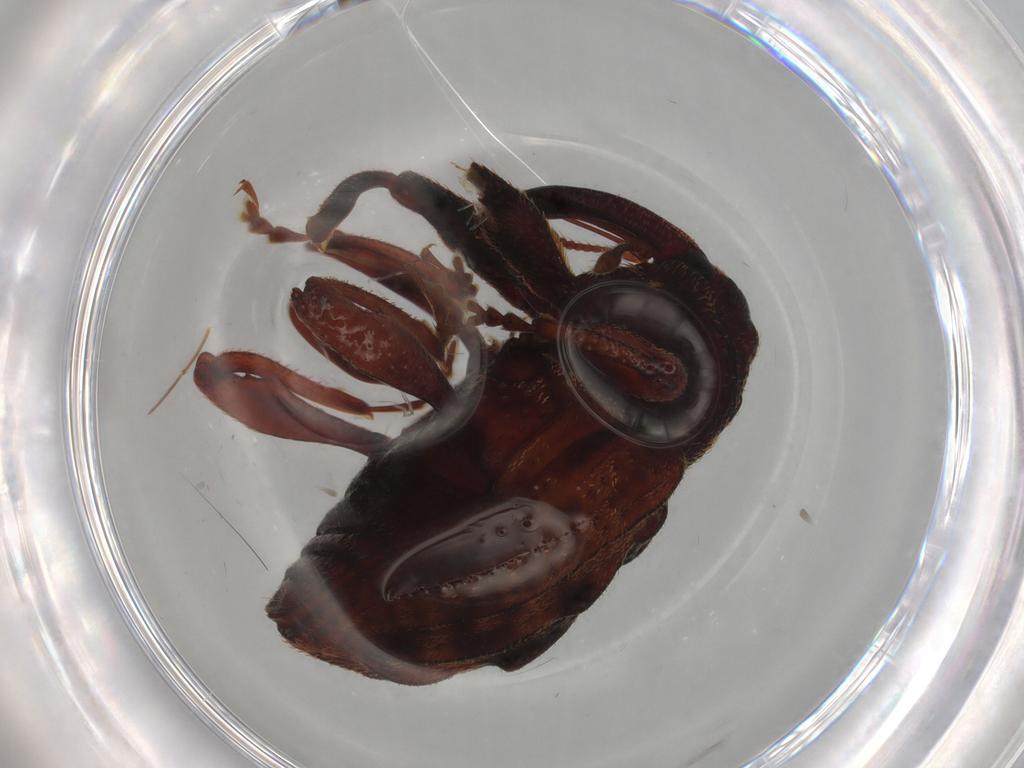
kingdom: Animalia
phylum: Arthropoda
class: Insecta
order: Coleoptera
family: Curculionidae
